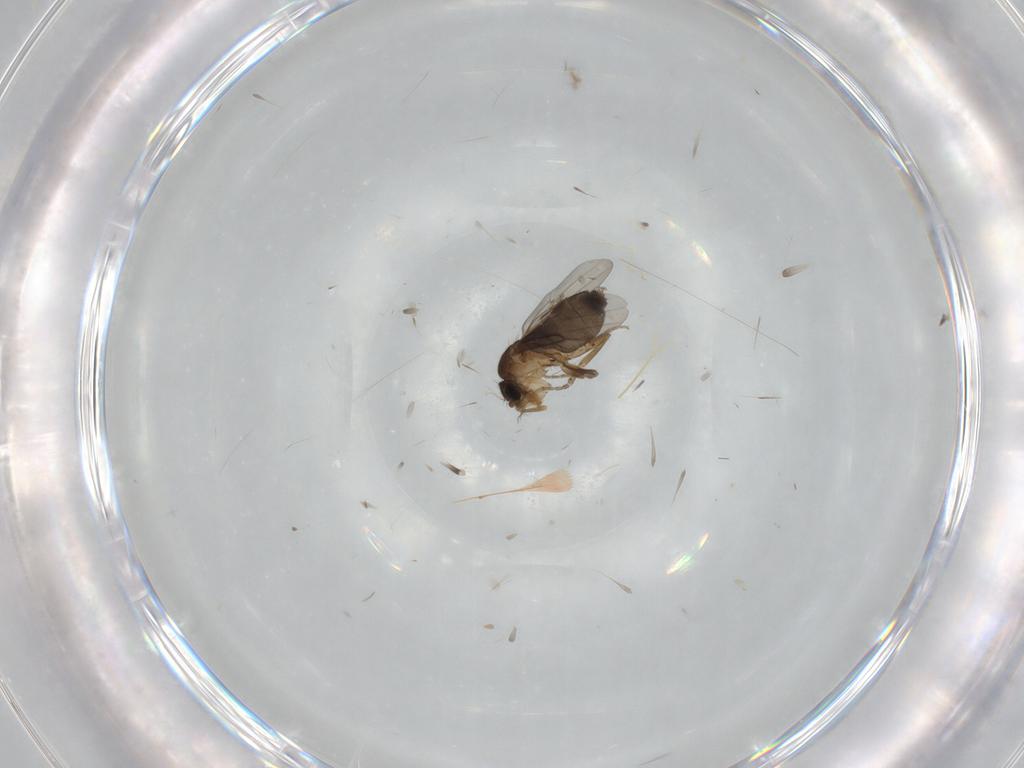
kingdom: Animalia
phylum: Arthropoda
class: Insecta
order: Diptera
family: Phoridae
